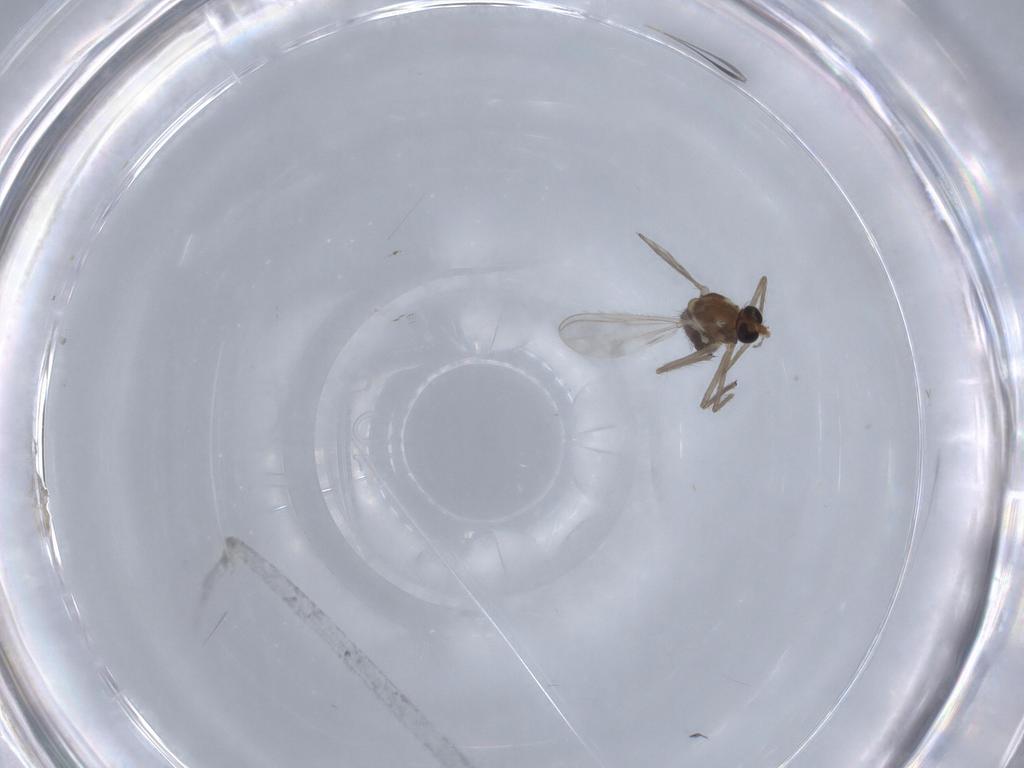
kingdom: Animalia
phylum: Arthropoda
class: Insecta
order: Diptera
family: Chironomidae
